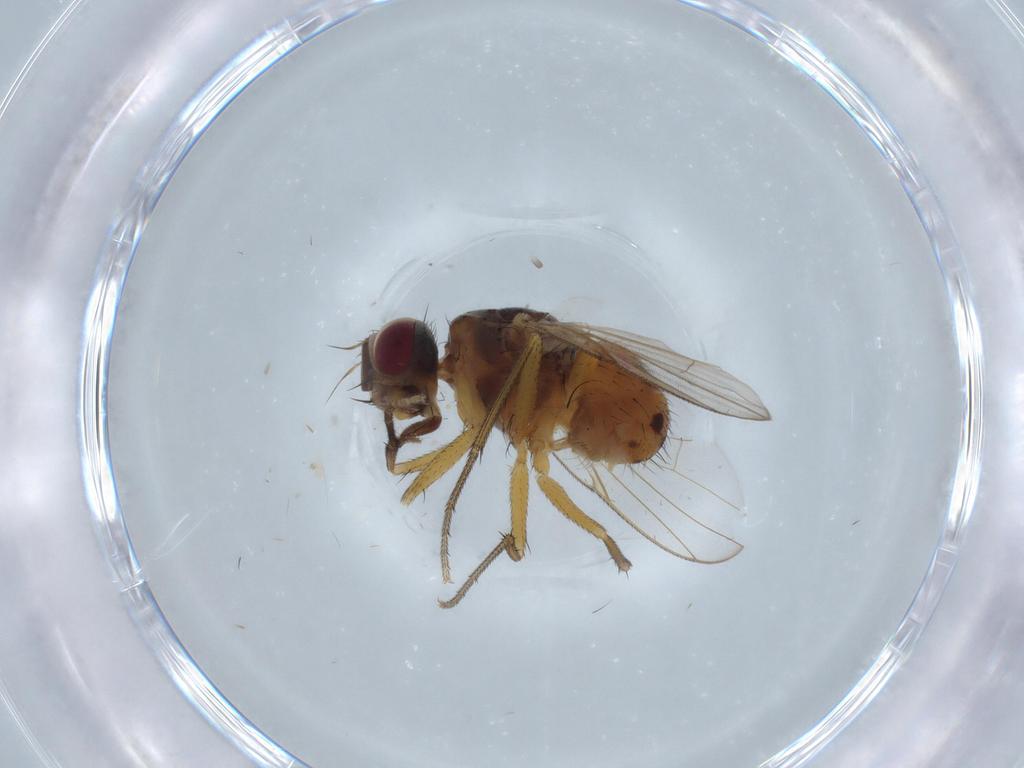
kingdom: Animalia
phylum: Arthropoda
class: Insecta
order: Diptera
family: Dolichopodidae
